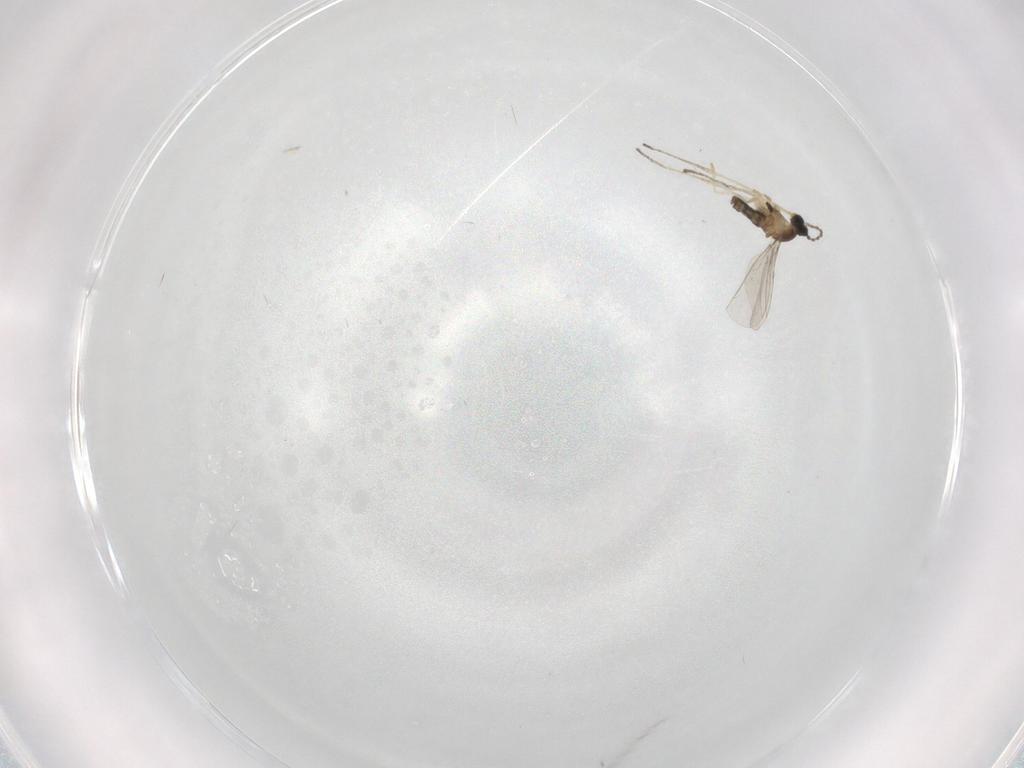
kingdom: Animalia
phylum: Arthropoda
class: Insecta
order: Diptera
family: Cecidomyiidae
